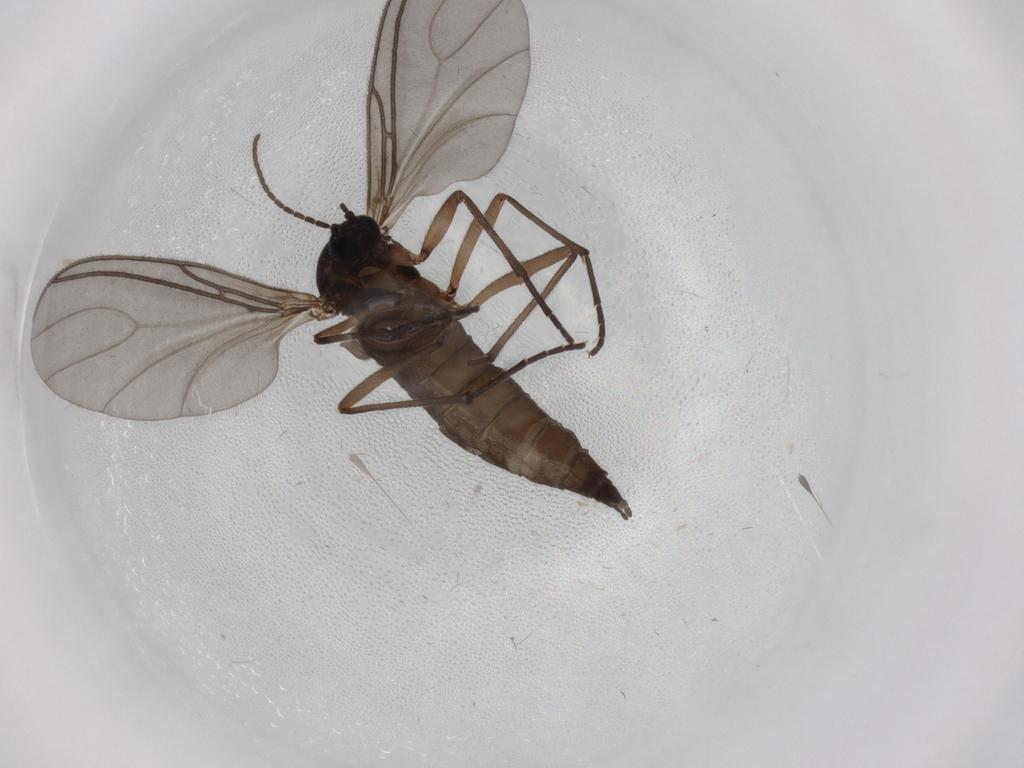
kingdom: Animalia
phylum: Arthropoda
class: Insecta
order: Diptera
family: Sciaridae
